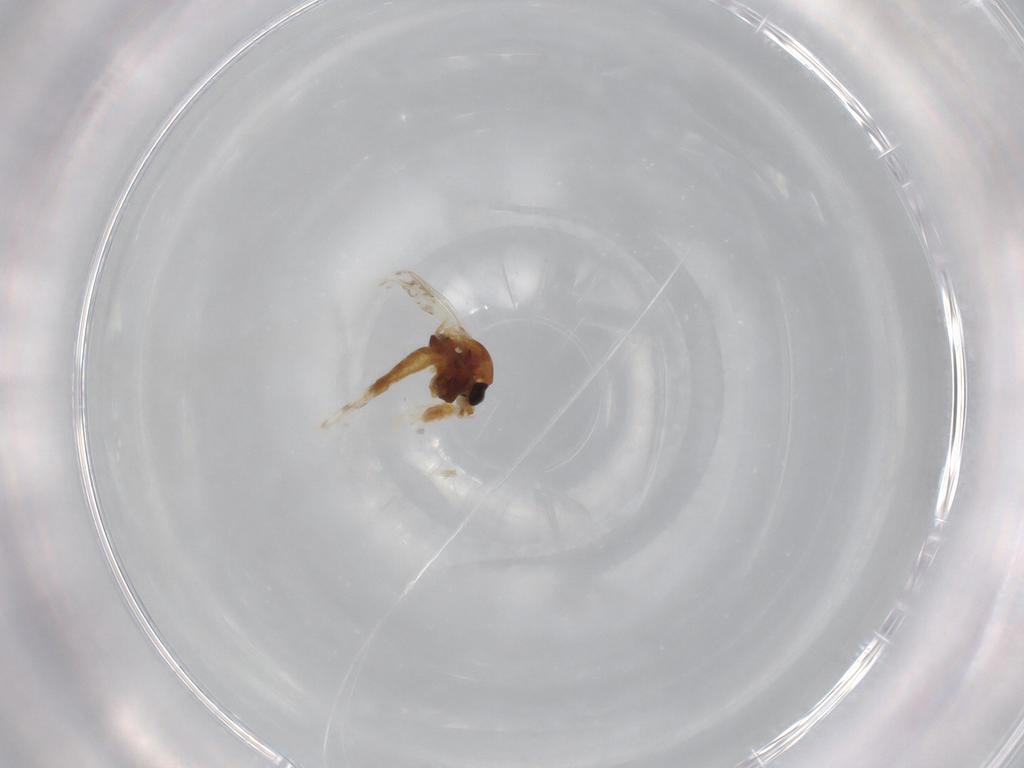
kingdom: Animalia
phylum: Arthropoda
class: Insecta
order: Diptera
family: Chironomidae
